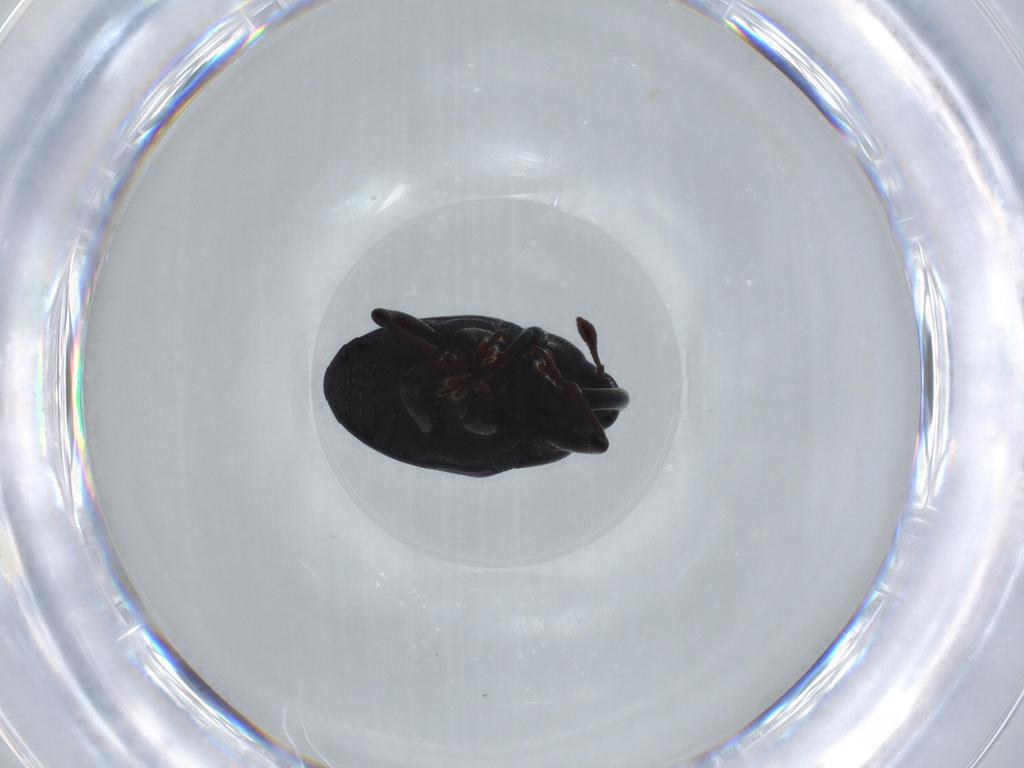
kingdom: Animalia
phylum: Arthropoda
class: Insecta
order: Coleoptera
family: Curculionidae
